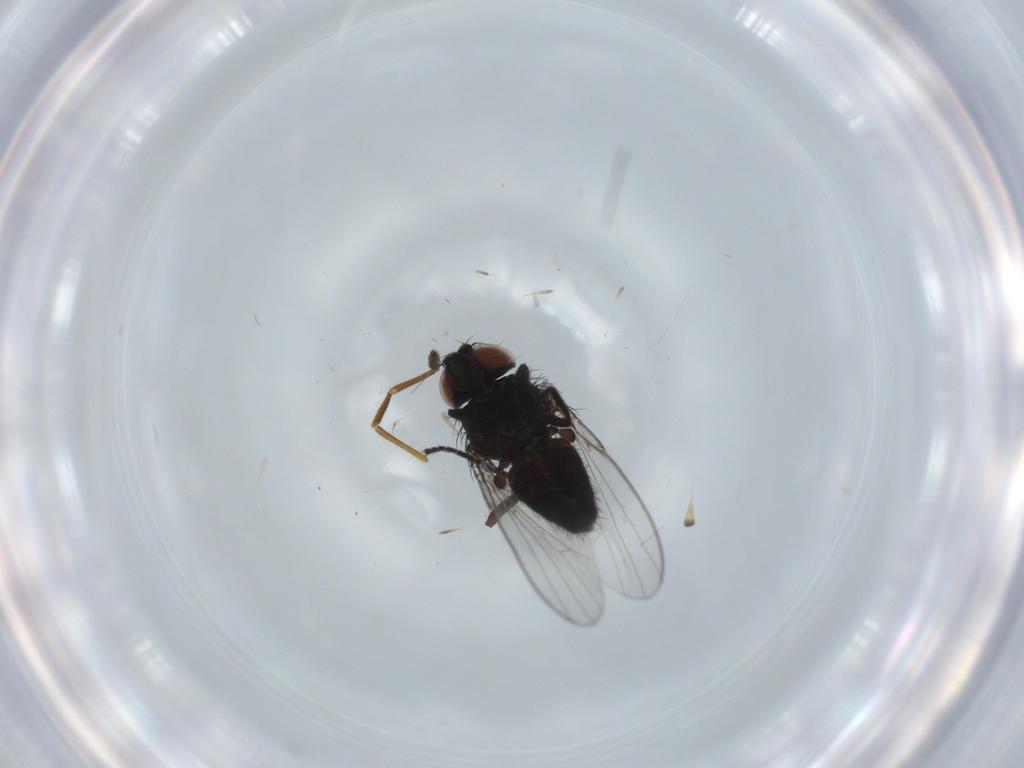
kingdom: Animalia
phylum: Arthropoda
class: Insecta
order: Diptera
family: Milichiidae
